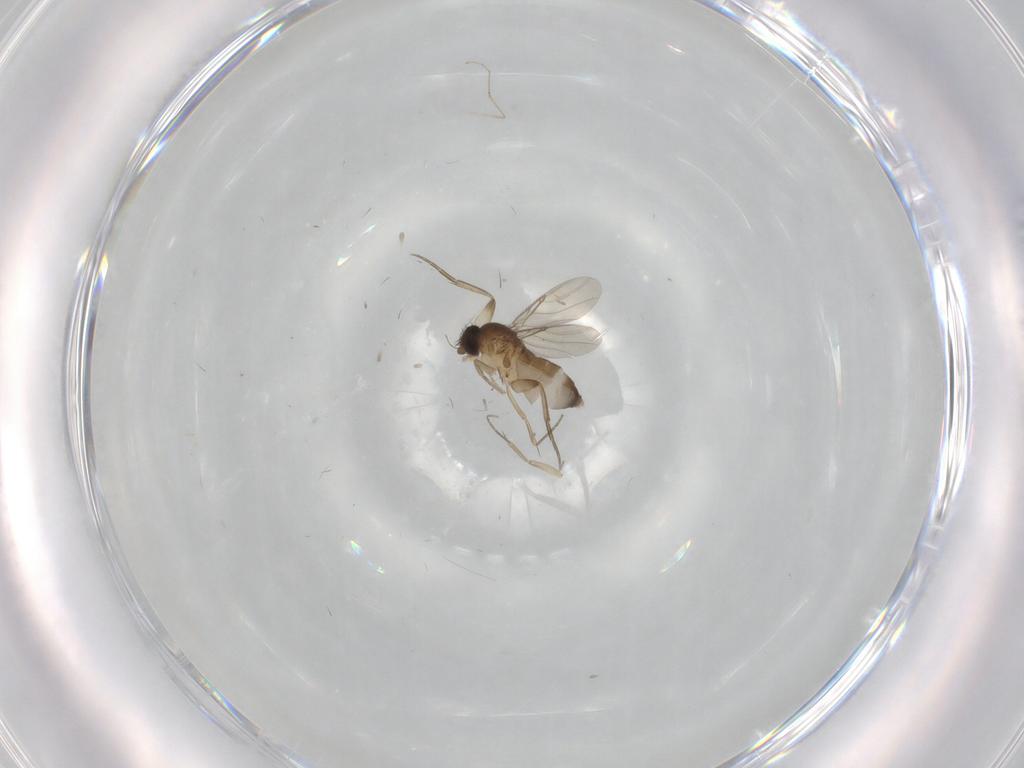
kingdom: Animalia
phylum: Arthropoda
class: Insecta
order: Diptera
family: Phoridae
